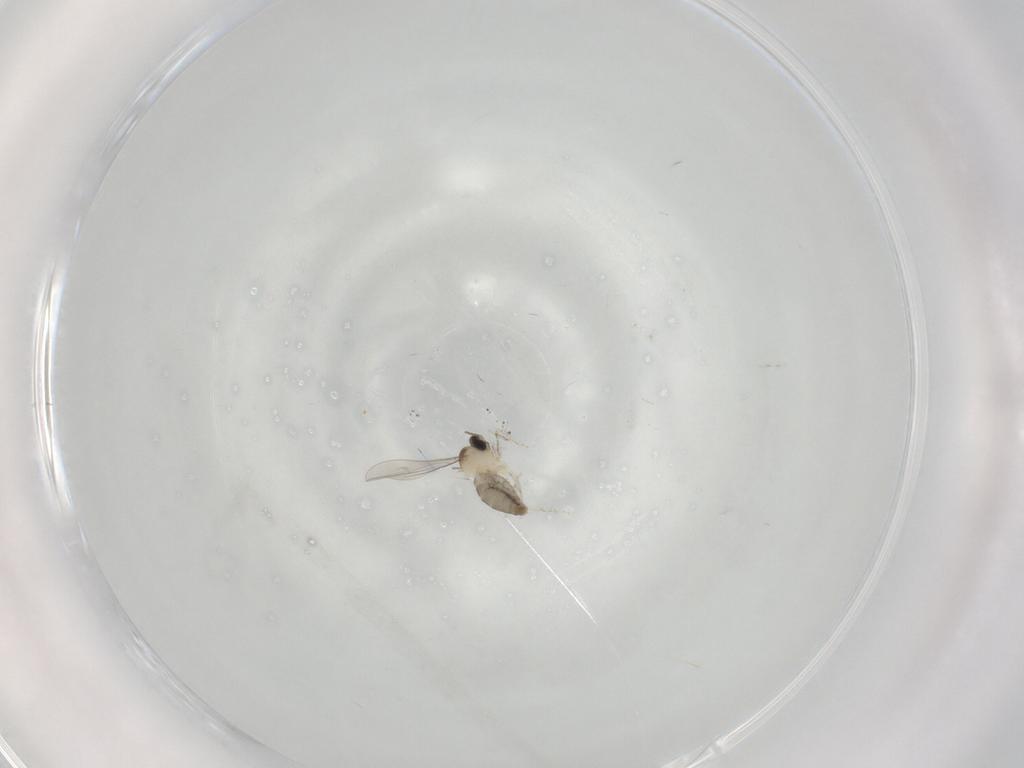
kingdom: Animalia
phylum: Arthropoda
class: Insecta
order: Diptera
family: Cecidomyiidae
